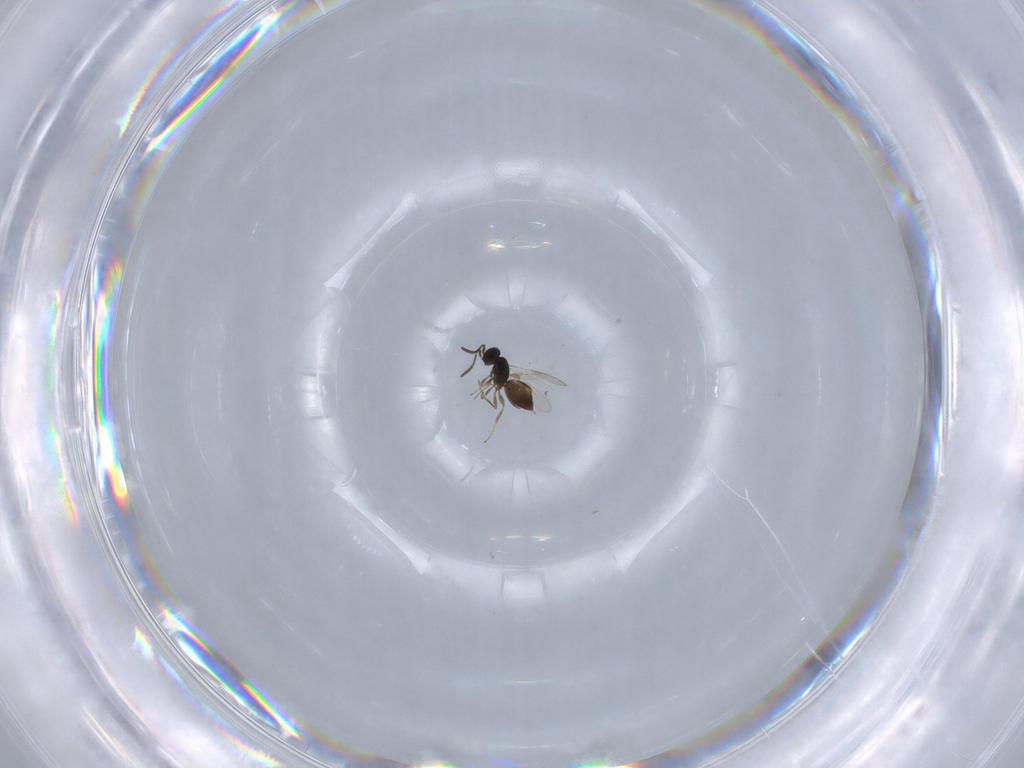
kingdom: Animalia
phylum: Arthropoda
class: Insecta
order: Hymenoptera
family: Scelionidae
